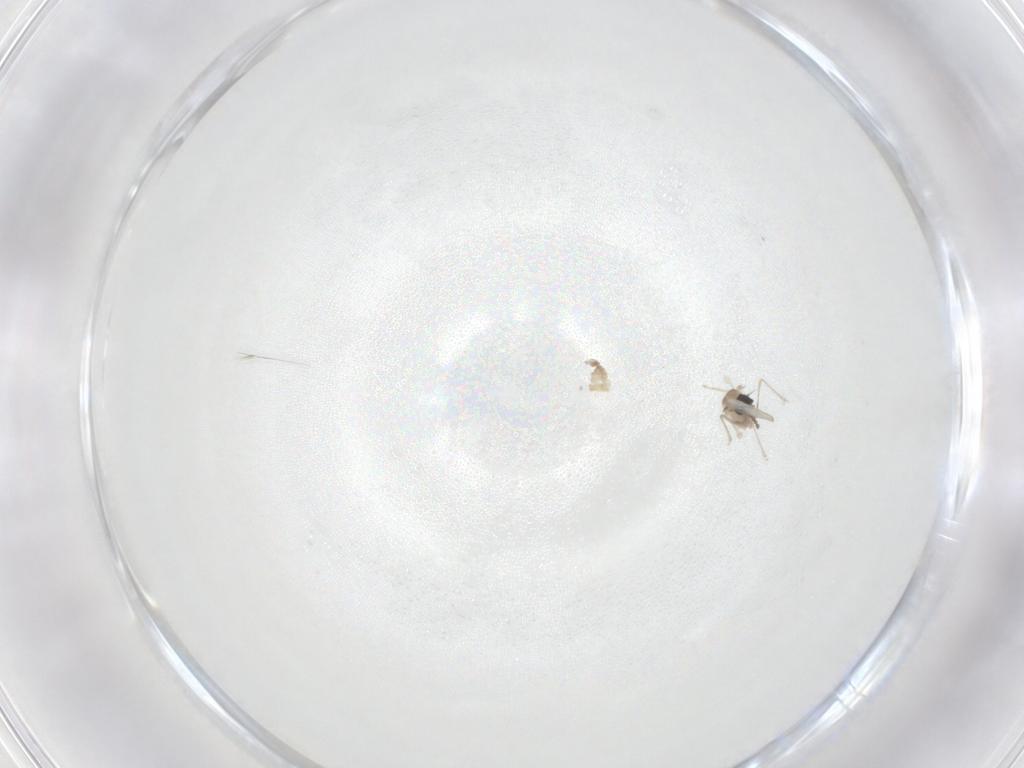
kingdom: Animalia
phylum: Arthropoda
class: Insecta
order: Diptera
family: Cecidomyiidae
